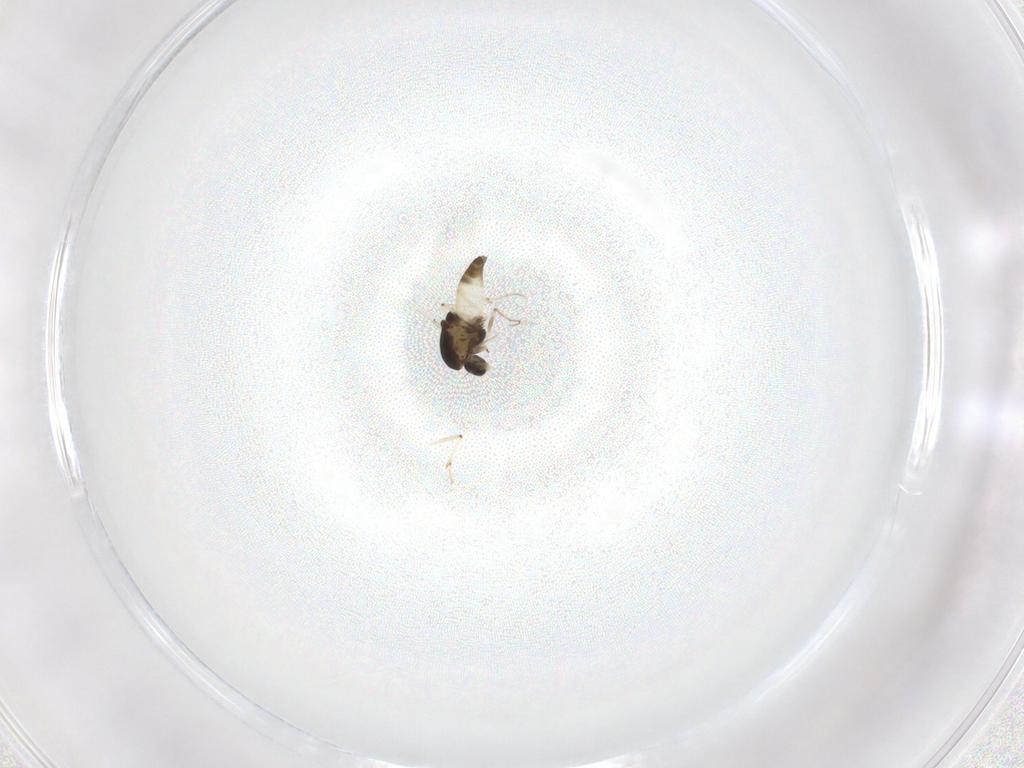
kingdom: Animalia
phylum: Arthropoda
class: Insecta
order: Diptera
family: Chironomidae
